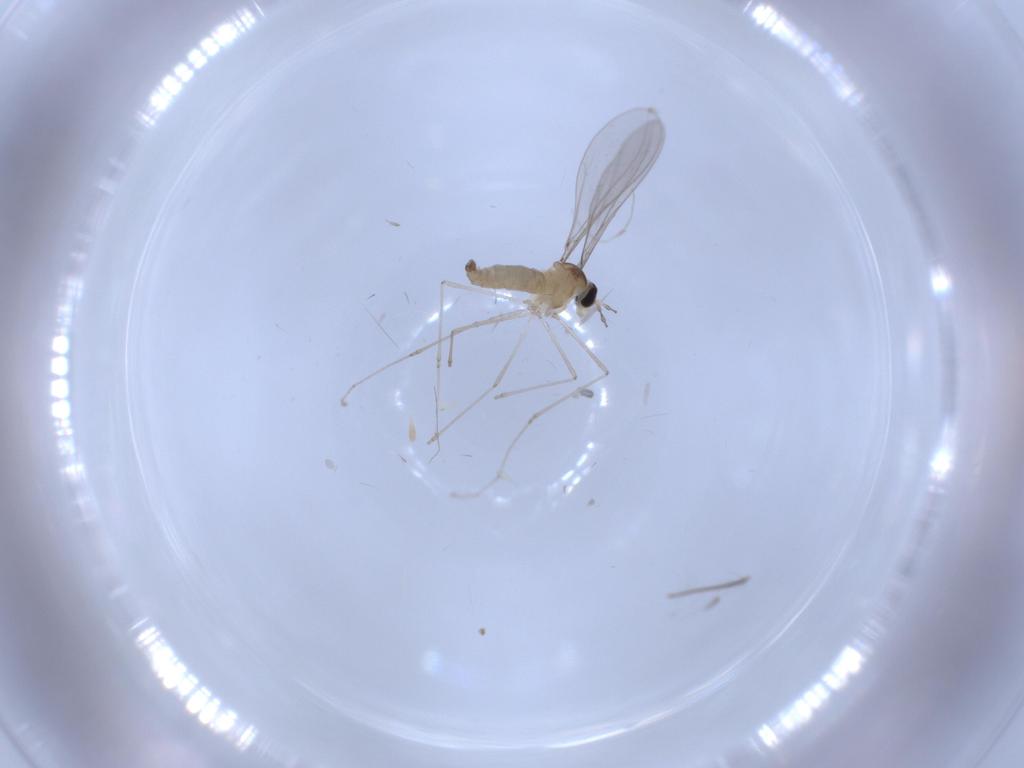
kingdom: Animalia
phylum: Arthropoda
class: Insecta
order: Diptera
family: Cecidomyiidae
